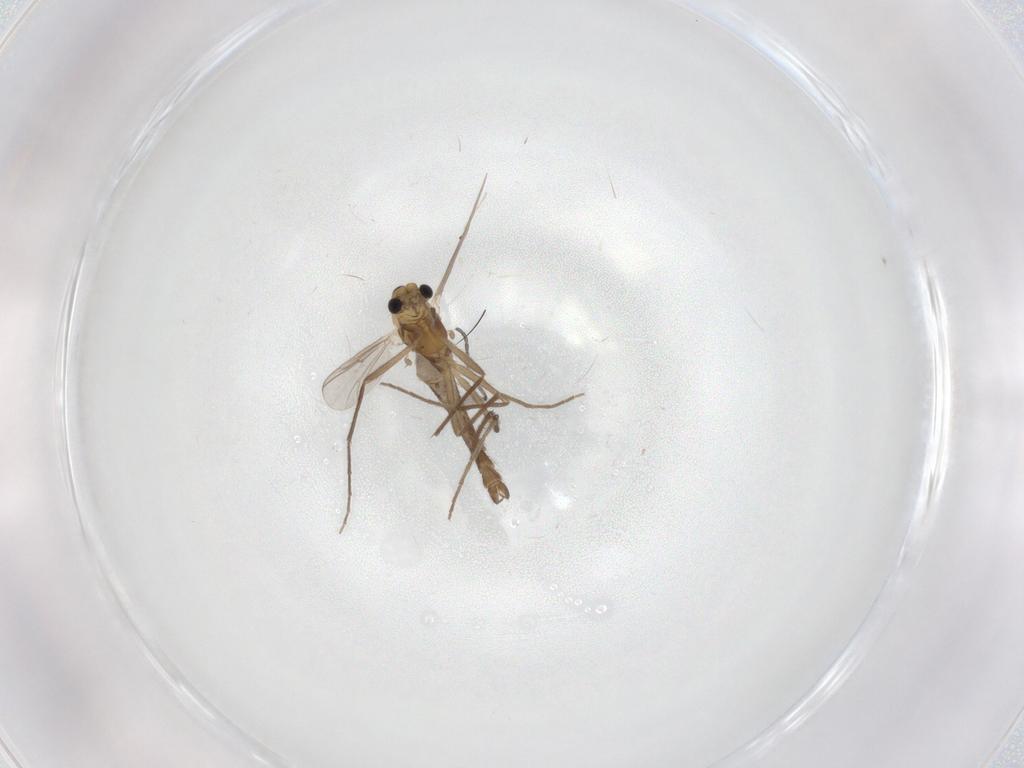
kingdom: Animalia
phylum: Arthropoda
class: Insecta
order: Diptera
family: Chironomidae
